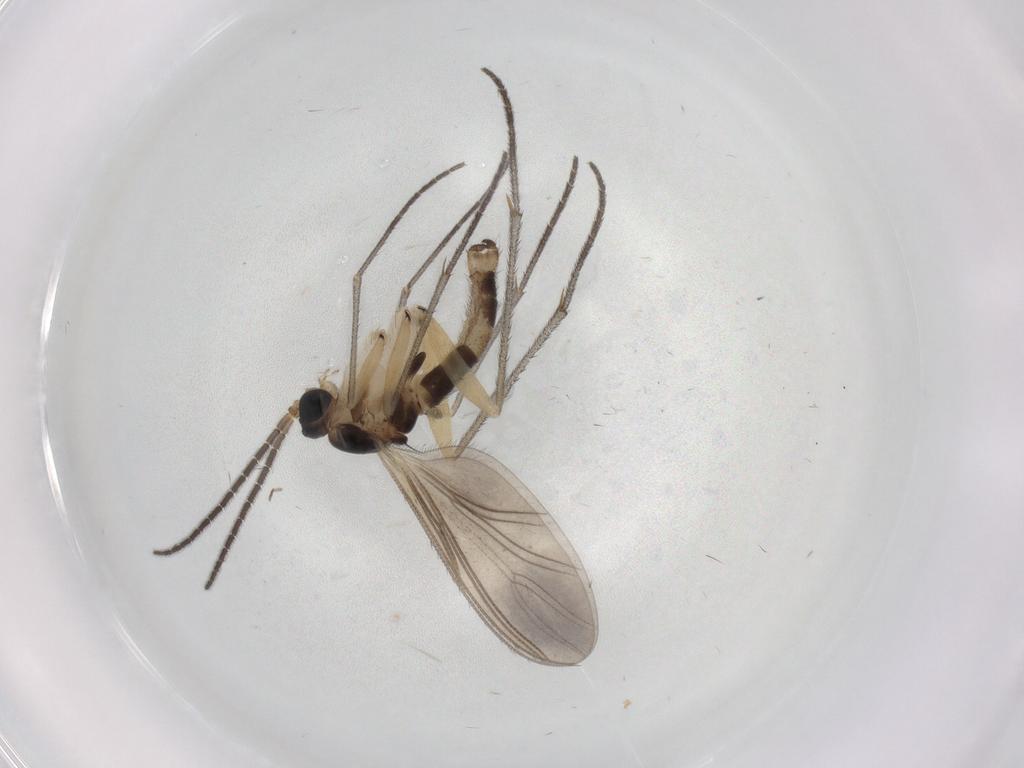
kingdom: Animalia
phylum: Arthropoda
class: Insecta
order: Diptera
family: Sciaridae
